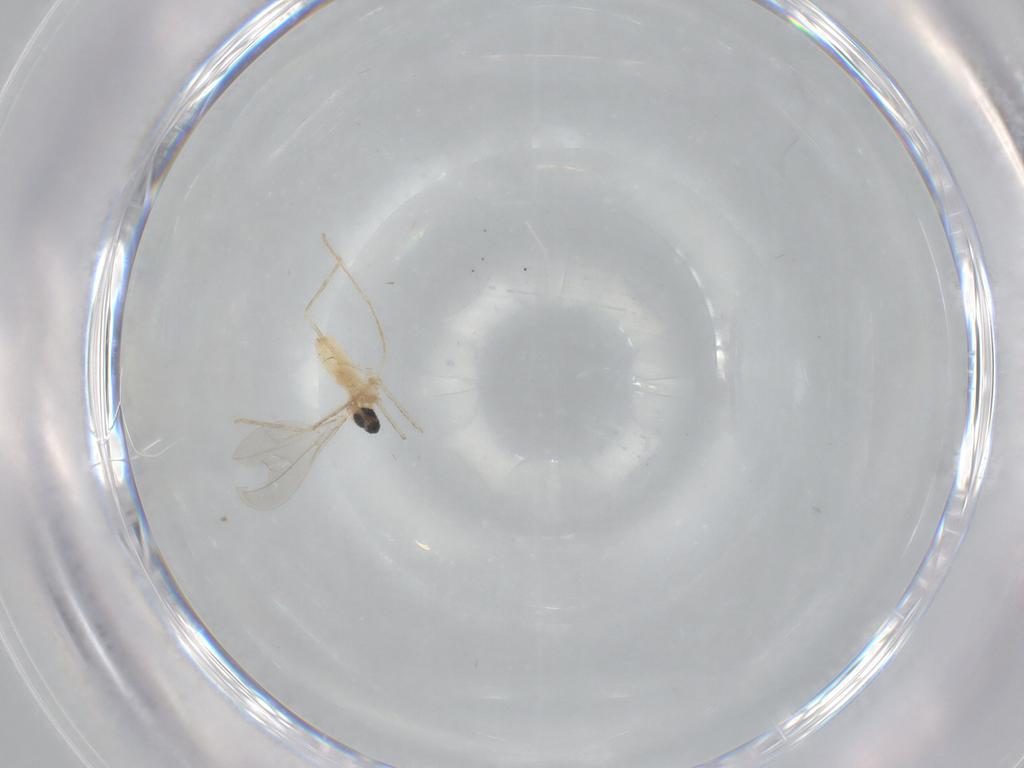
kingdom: Animalia
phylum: Arthropoda
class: Insecta
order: Diptera
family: Cecidomyiidae
